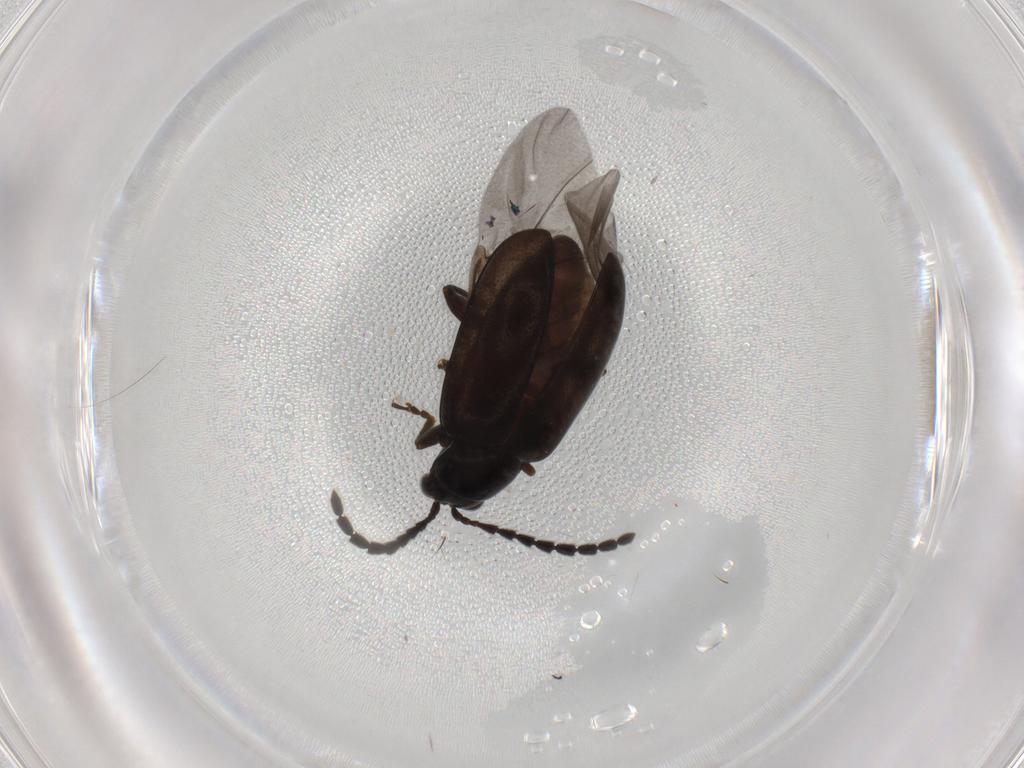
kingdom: Animalia
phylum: Arthropoda
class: Insecta
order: Coleoptera
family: Chrysomelidae
